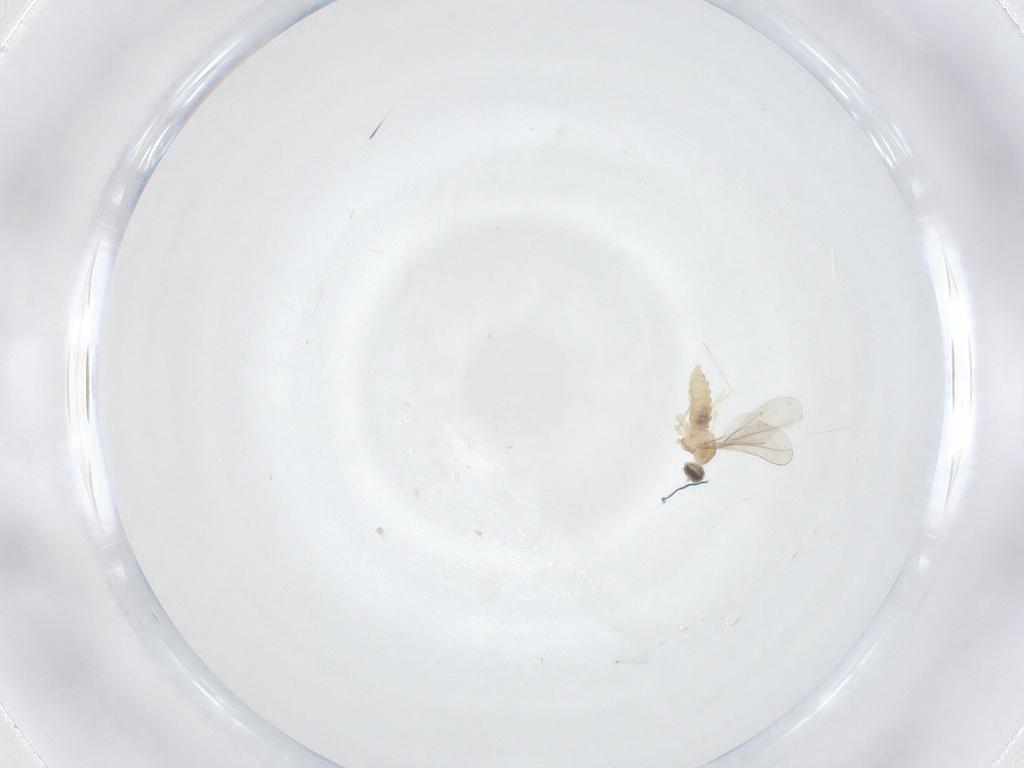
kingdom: Animalia
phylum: Arthropoda
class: Insecta
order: Diptera
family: Cecidomyiidae
